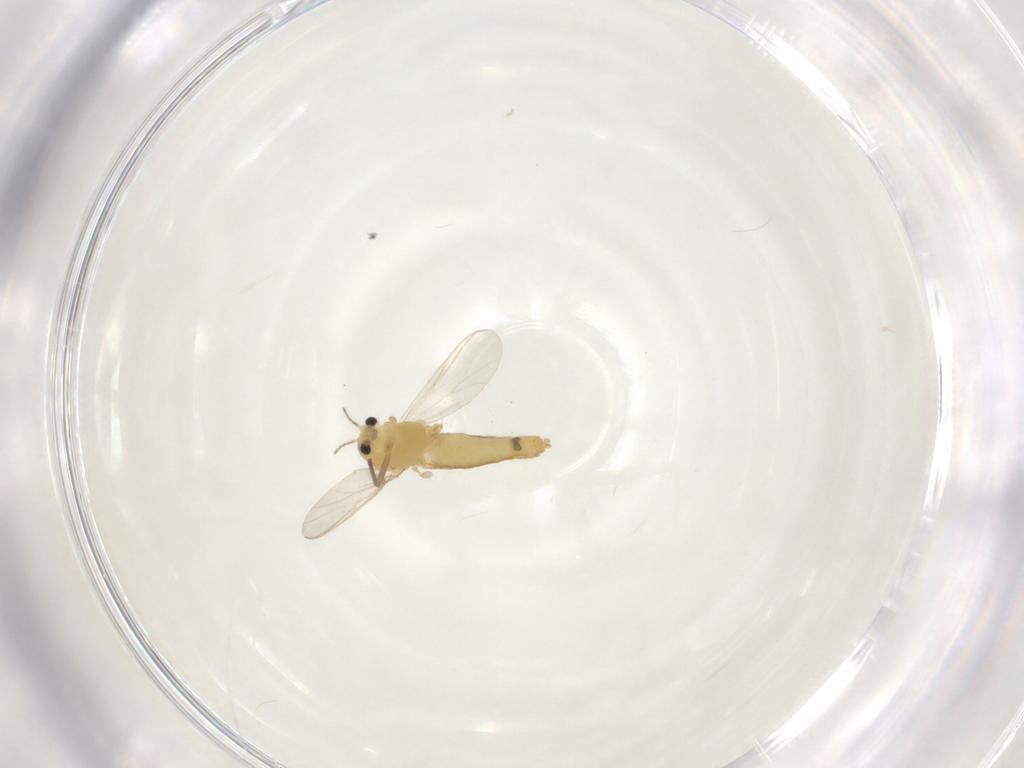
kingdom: Animalia
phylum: Arthropoda
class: Insecta
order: Diptera
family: Chironomidae
